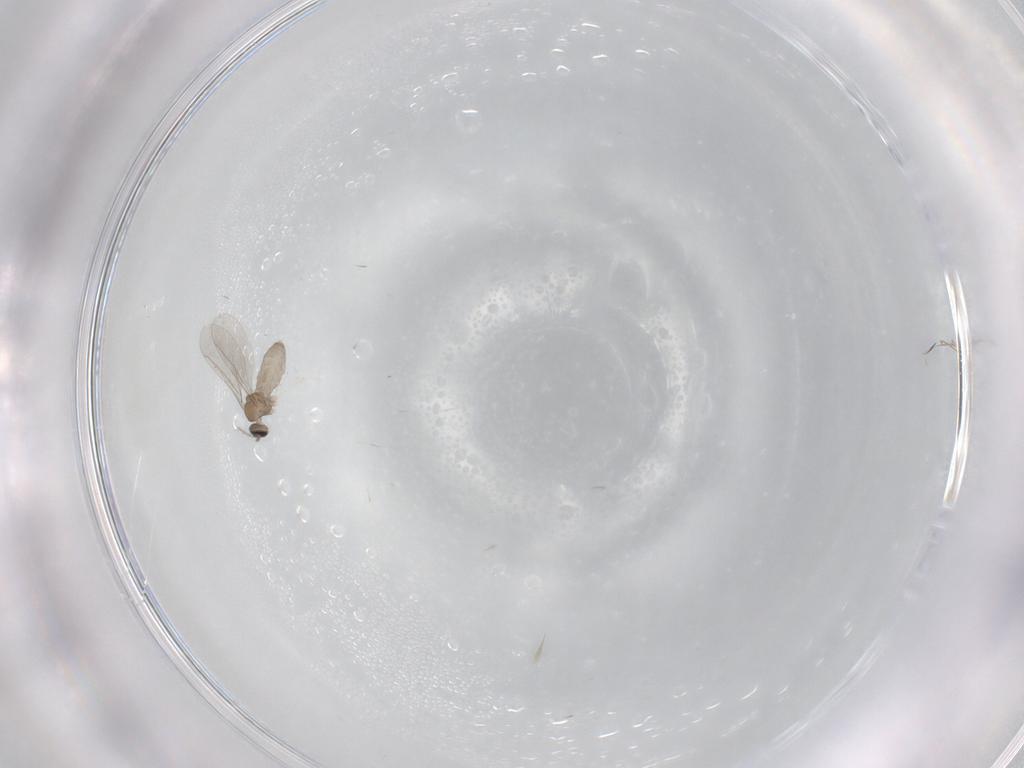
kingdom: Animalia
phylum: Arthropoda
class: Insecta
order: Diptera
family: Cecidomyiidae
